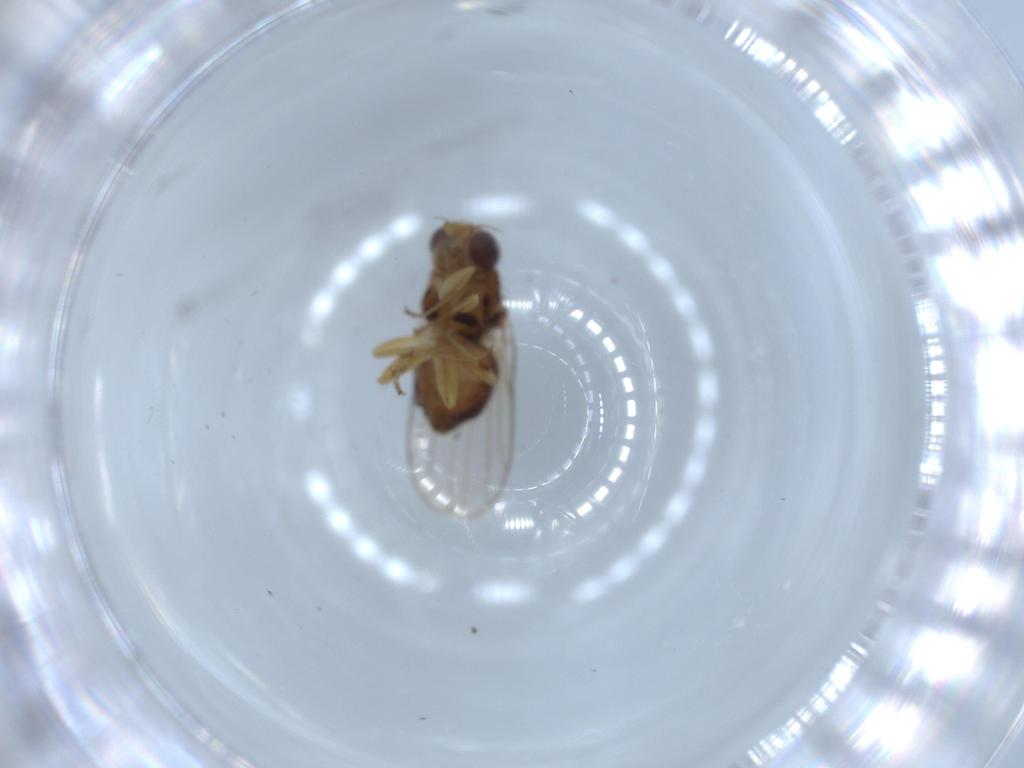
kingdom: Animalia
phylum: Arthropoda
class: Insecta
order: Diptera
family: Chloropidae
